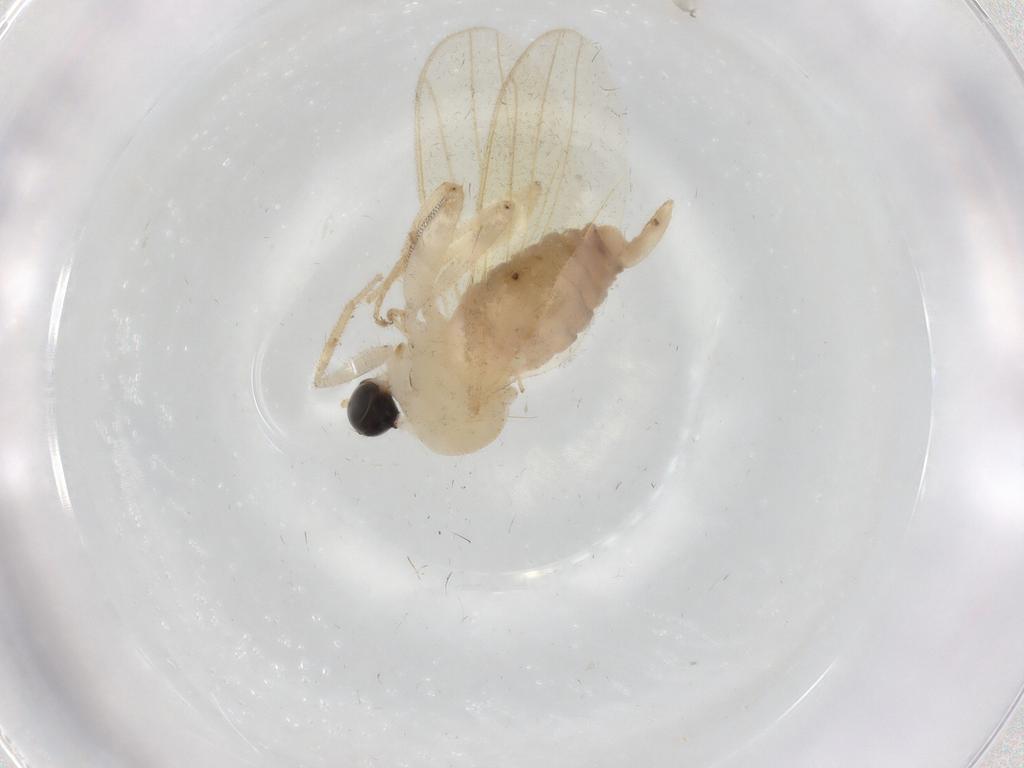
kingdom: Animalia
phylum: Arthropoda
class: Insecta
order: Diptera
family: Hybotidae
